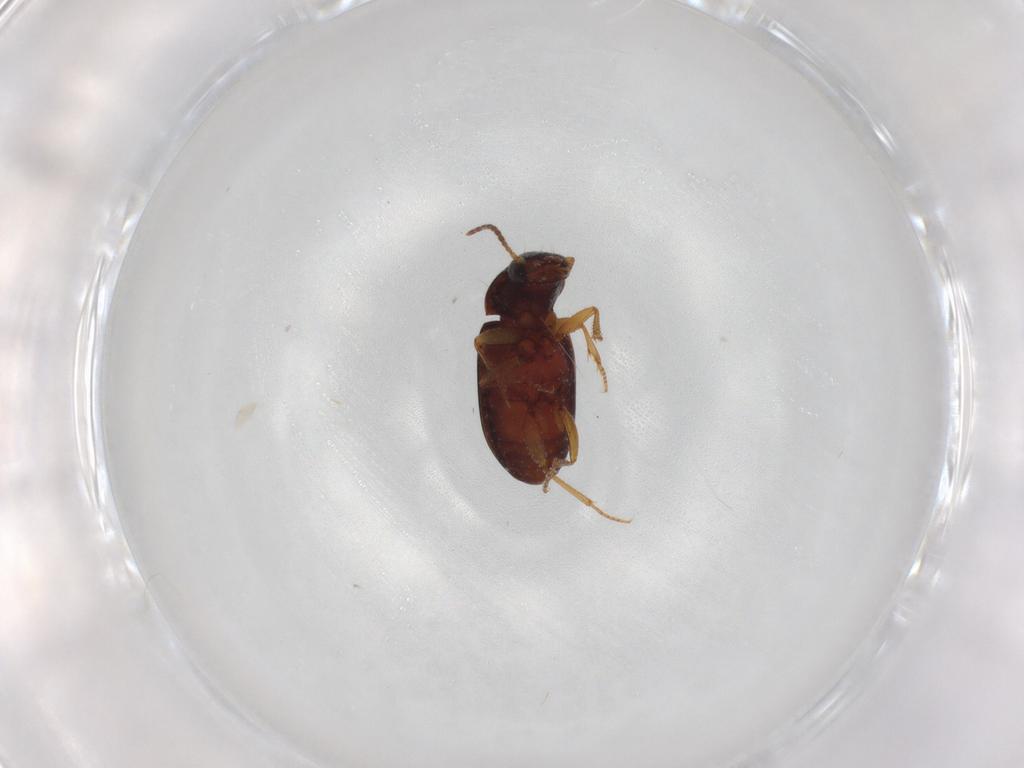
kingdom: Animalia
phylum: Arthropoda
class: Insecta
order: Coleoptera
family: Carabidae
